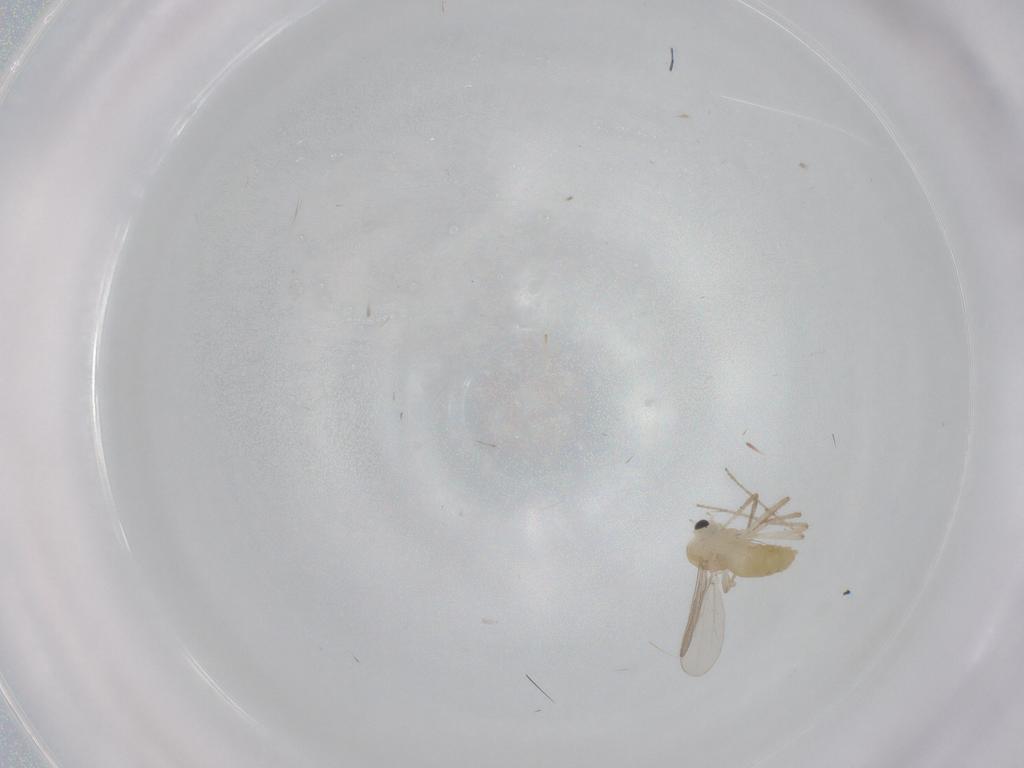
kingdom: Animalia
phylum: Arthropoda
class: Insecta
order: Diptera
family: Chironomidae
